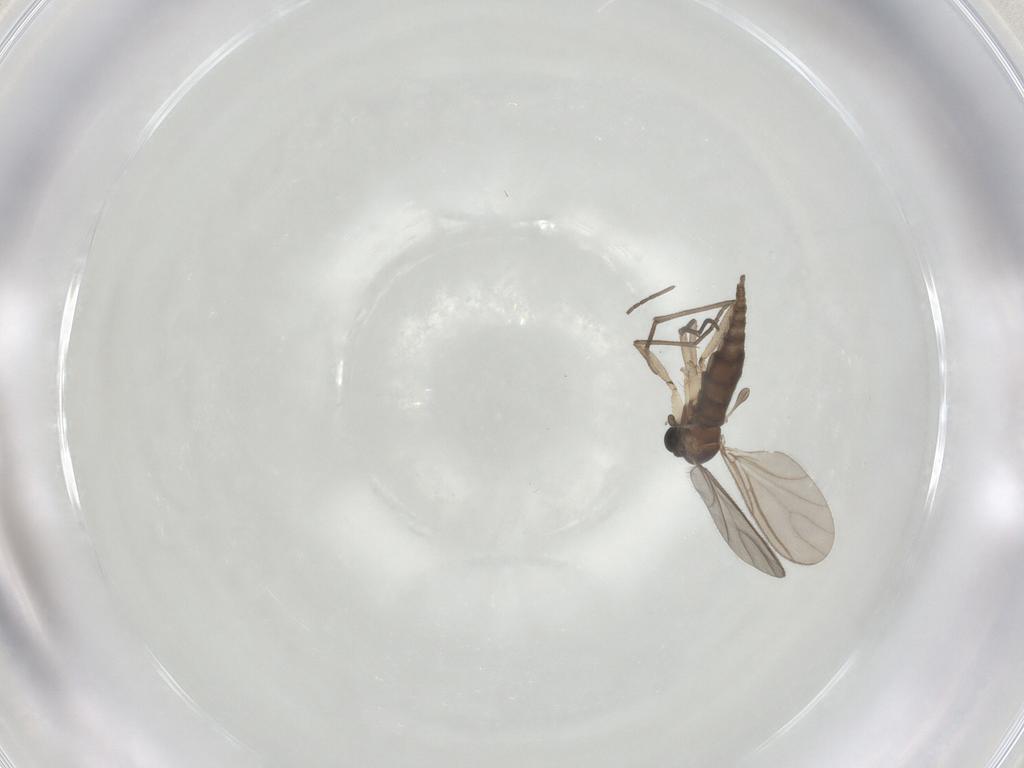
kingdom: Animalia
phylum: Arthropoda
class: Insecta
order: Diptera
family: Sciaridae
